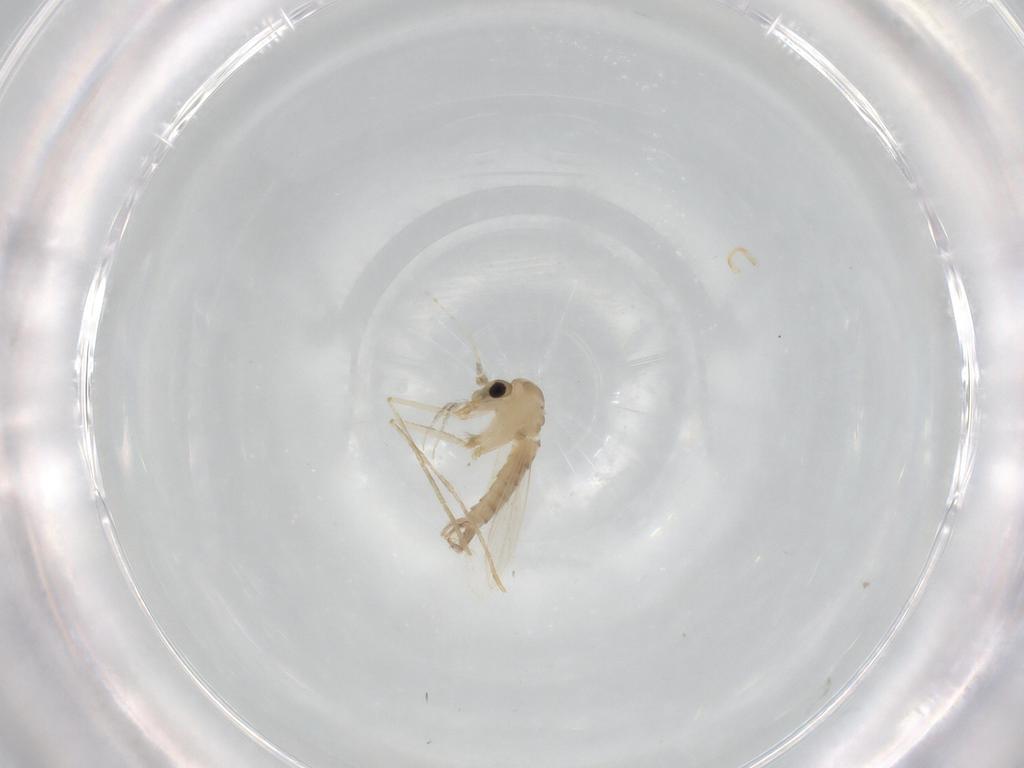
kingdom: Animalia
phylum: Arthropoda
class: Insecta
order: Diptera
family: Psychodidae
